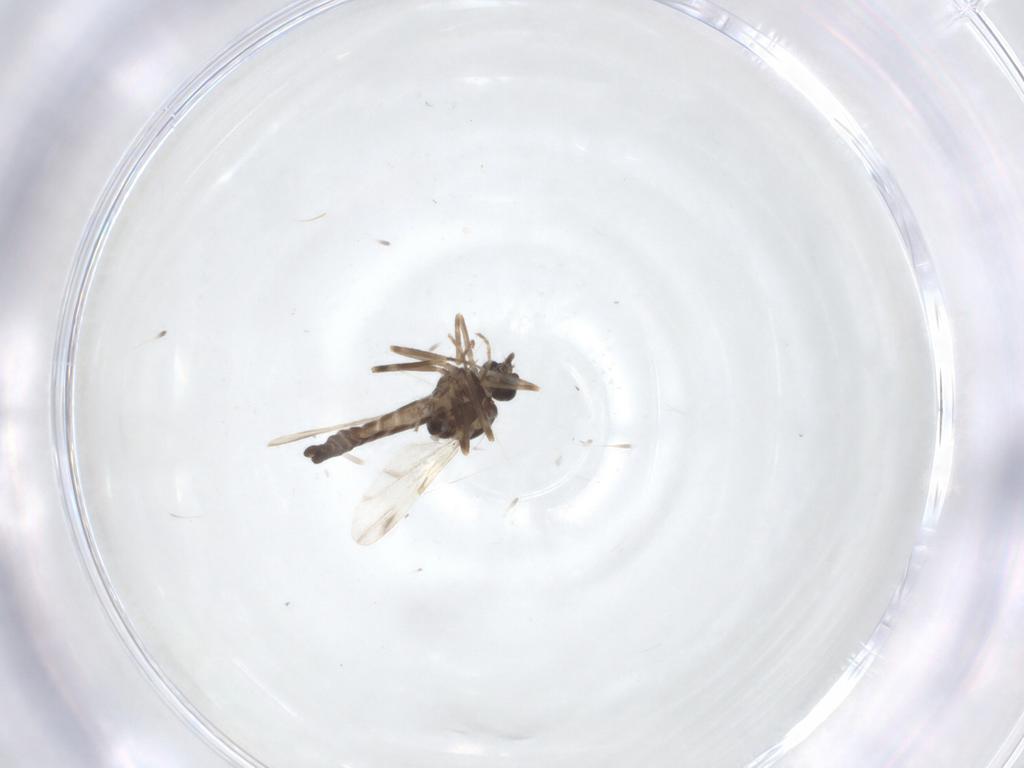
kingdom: Animalia
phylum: Arthropoda
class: Insecta
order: Diptera
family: Ceratopogonidae
